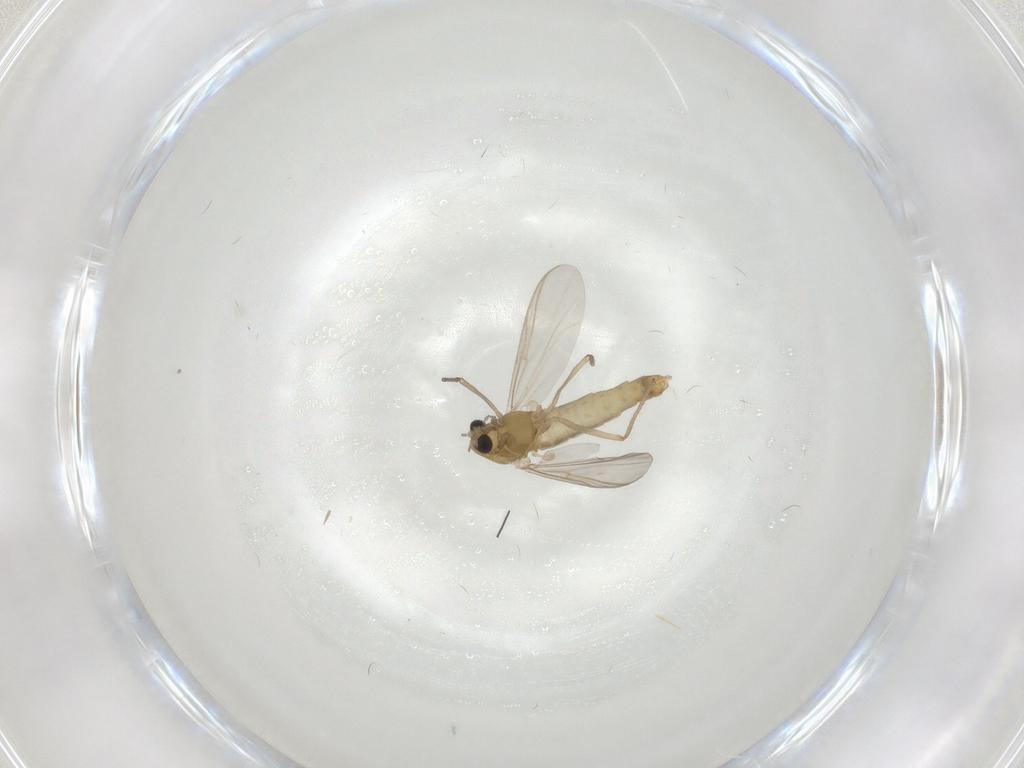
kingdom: Animalia
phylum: Arthropoda
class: Insecta
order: Diptera
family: Chironomidae
